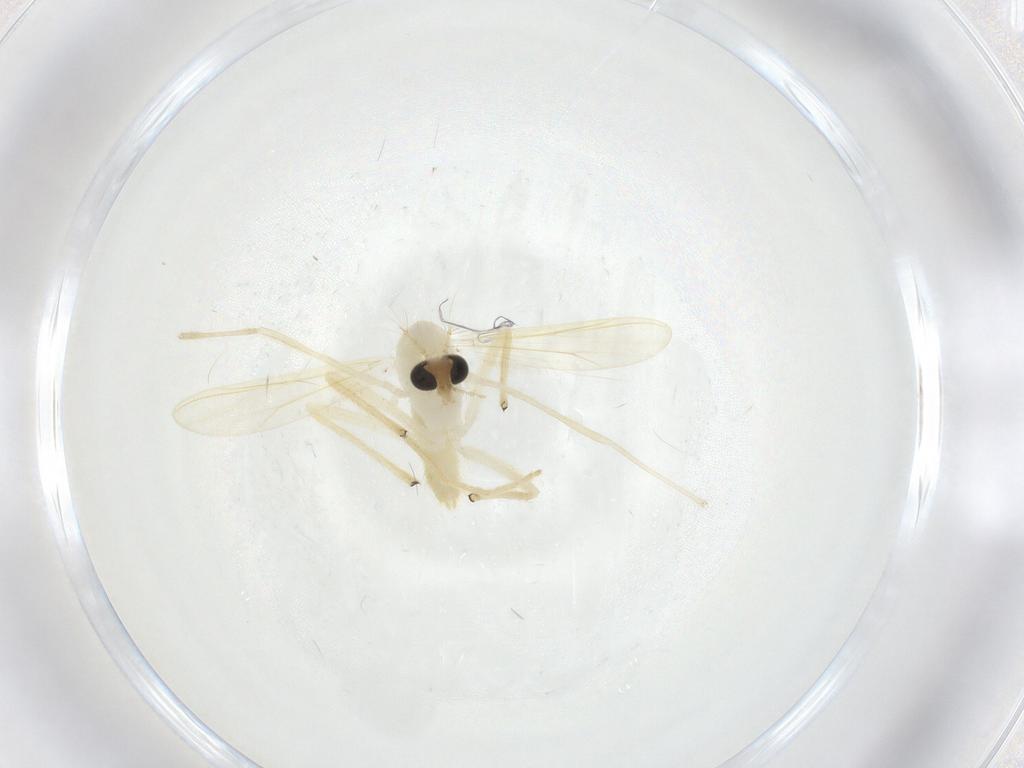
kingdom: Animalia
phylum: Arthropoda
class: Insecta
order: Diptera
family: Chironomidae
